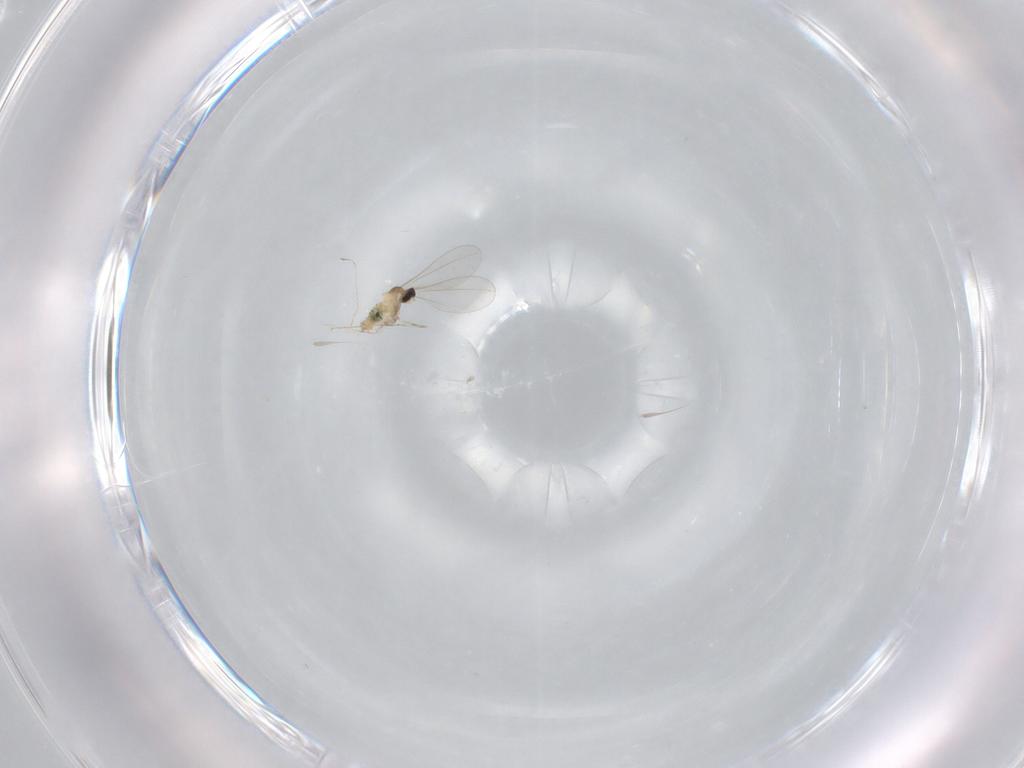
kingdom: Animalia
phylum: Arthropoda
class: Insecta
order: Diptera
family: Cecidomyiidae
